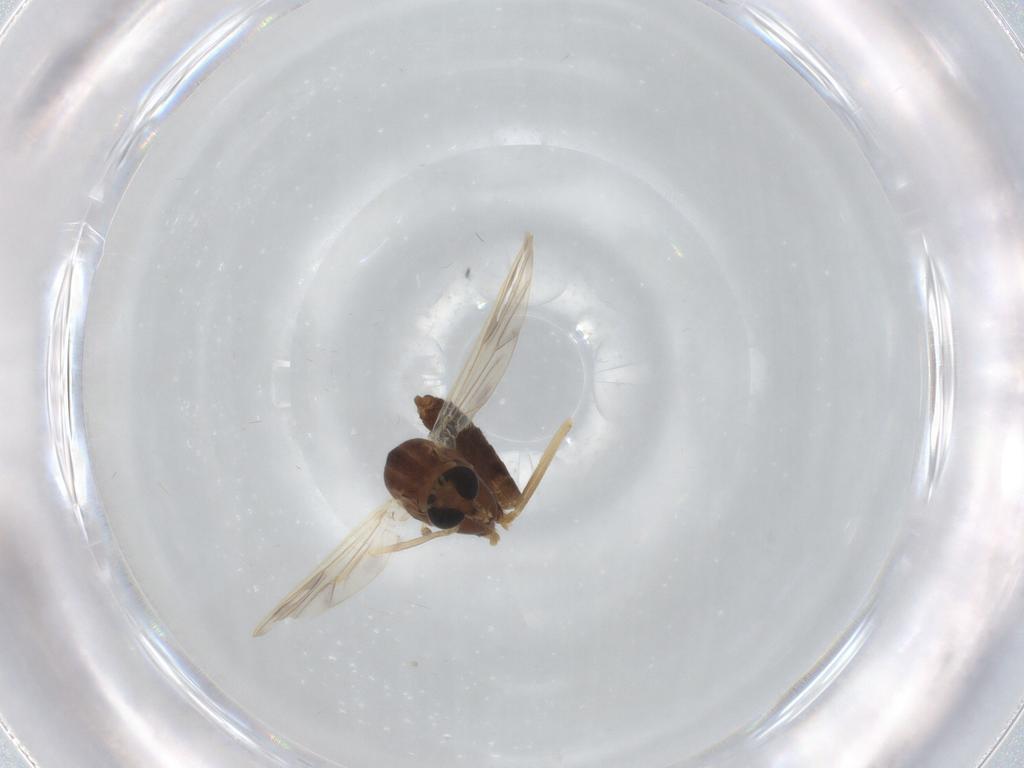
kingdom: Animalia
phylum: Arthropoda
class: Insecta
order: Diptera
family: Chironomidae
